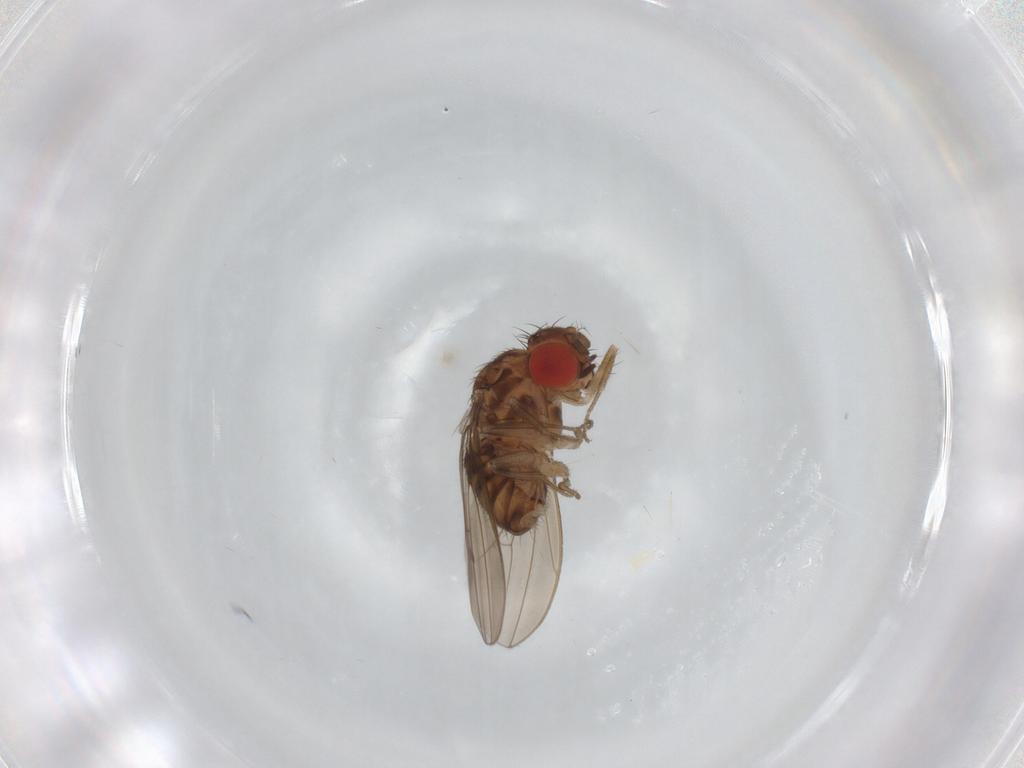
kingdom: Animalia
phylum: Arthropoda
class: Insecta
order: Diptera
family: Drosophilidae
